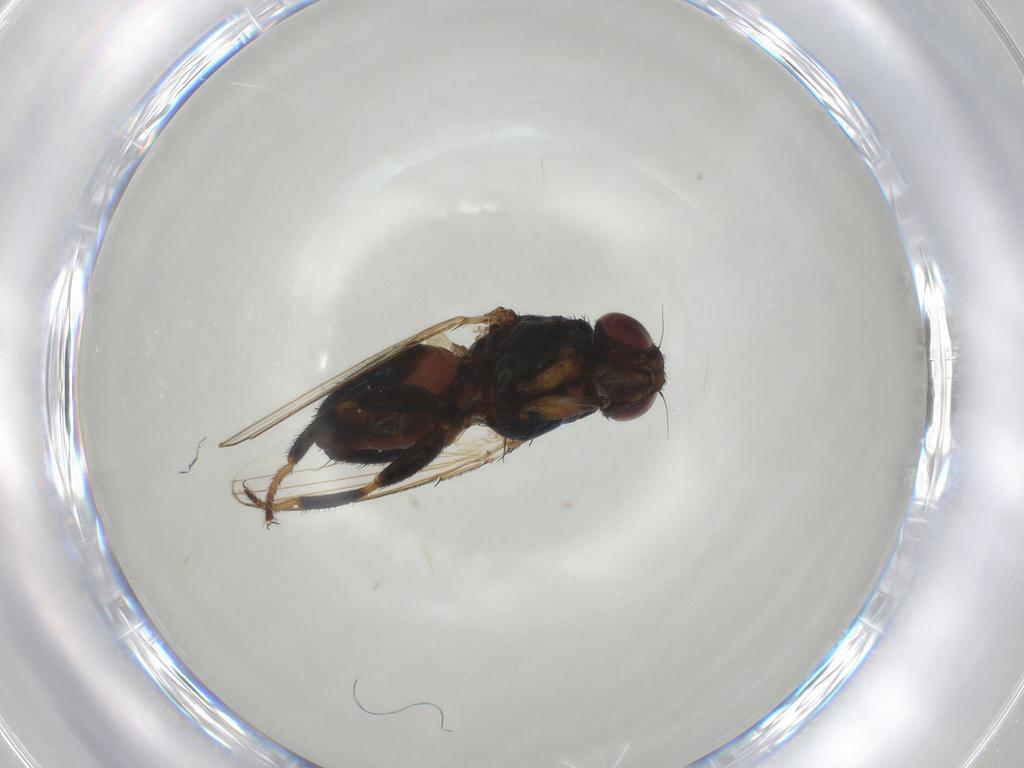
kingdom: Animalia
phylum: Arthropoda
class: Insecta
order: Diptera
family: Milichiidae
